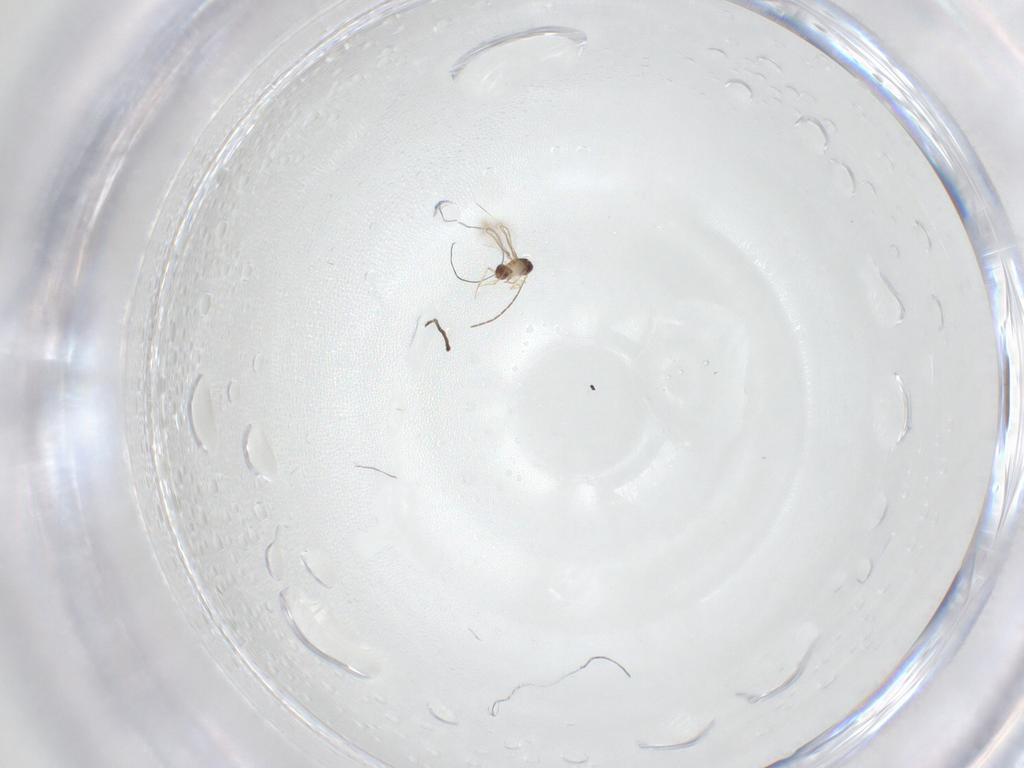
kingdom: Animalia
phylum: Arthropoda
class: Insecta
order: Hymenoptera
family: Mymaridae
